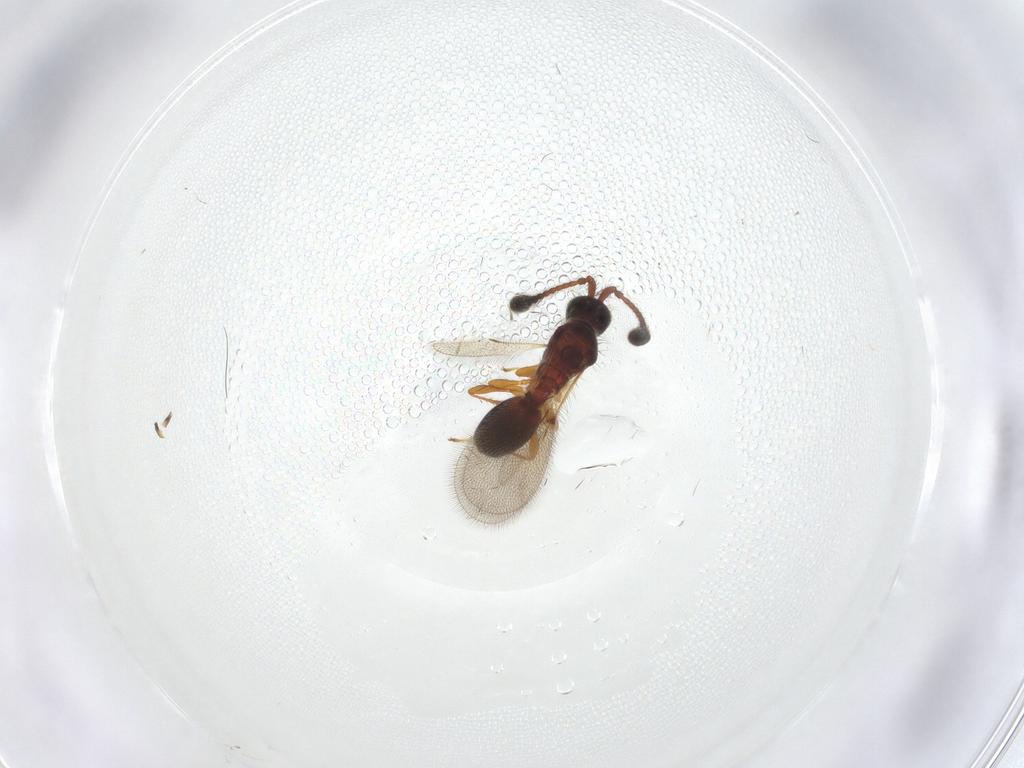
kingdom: Animalia
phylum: Arthropoda
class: Insecta
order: Hymenoptera
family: Diapriidae
